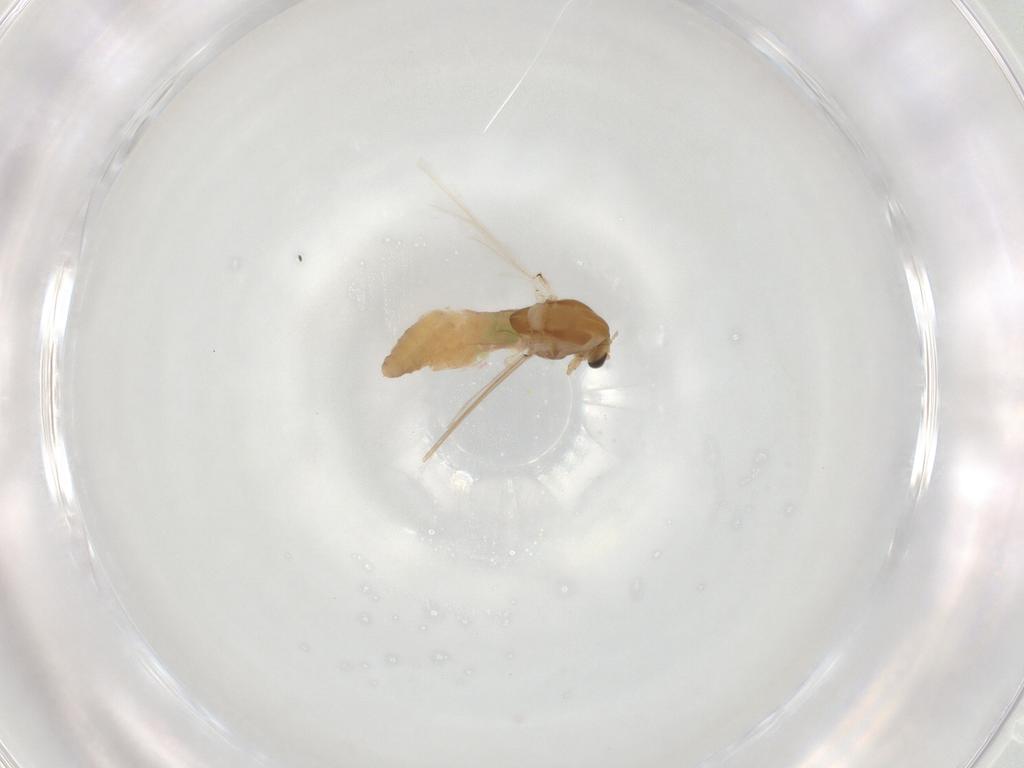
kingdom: Animalia
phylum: Arthropoda
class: Insecta
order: Diptera
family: Chironomidae
